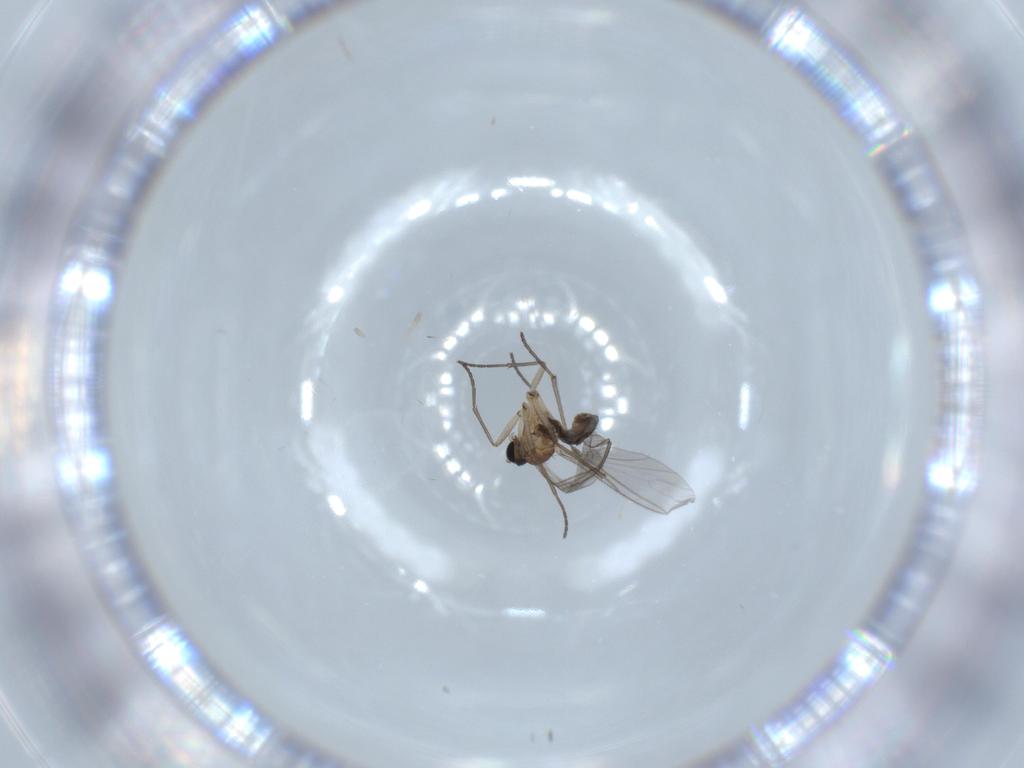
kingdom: Animalia
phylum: Arthropoda
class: Insecta
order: Diptera
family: Sciaridae
